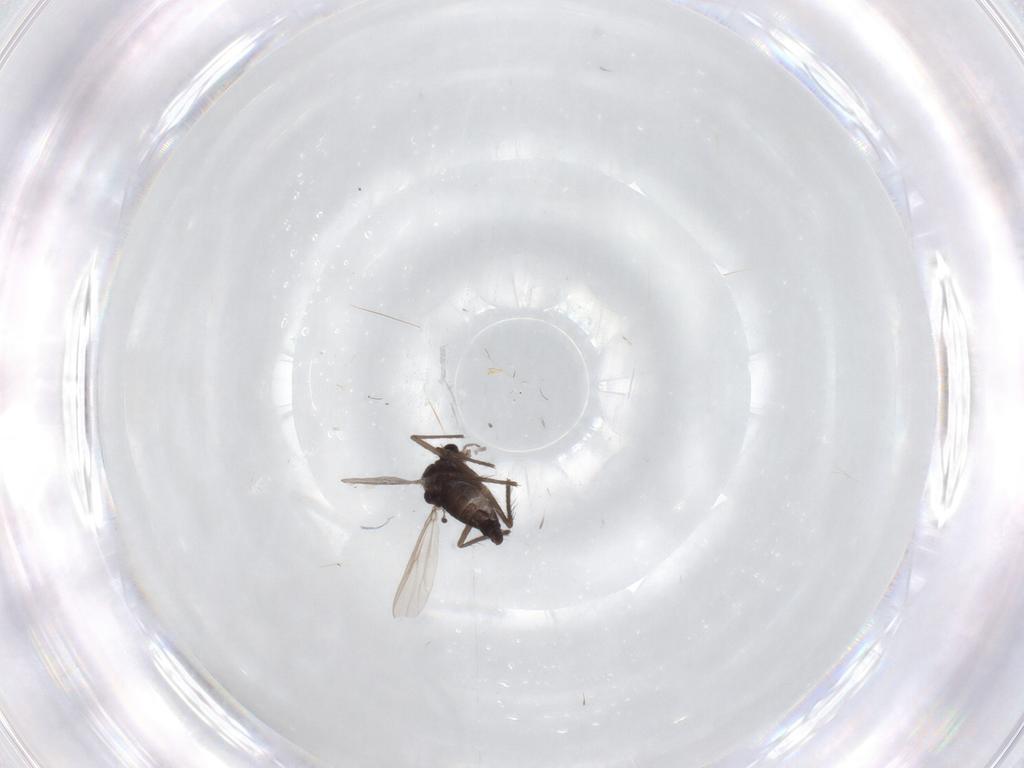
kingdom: Animalia
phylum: Arthropoda
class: Insecta
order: Diptera
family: Chironomidae
